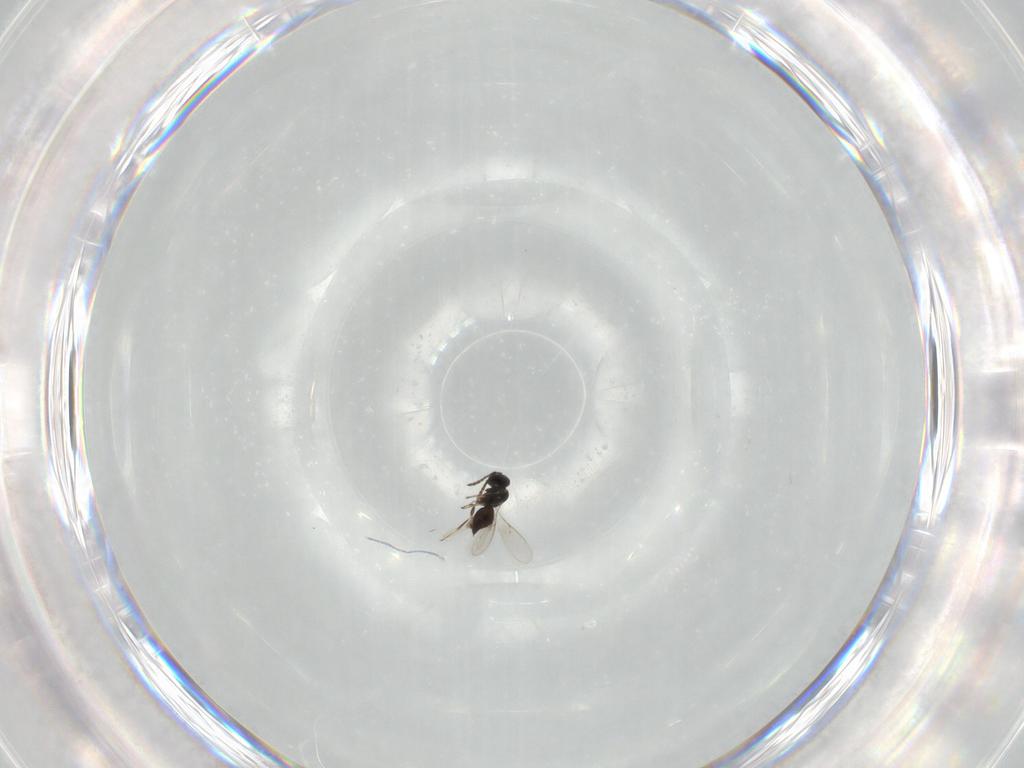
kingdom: Animalia
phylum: Arthropoda
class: Insecta
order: Hymenoptera
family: Scelionidae
